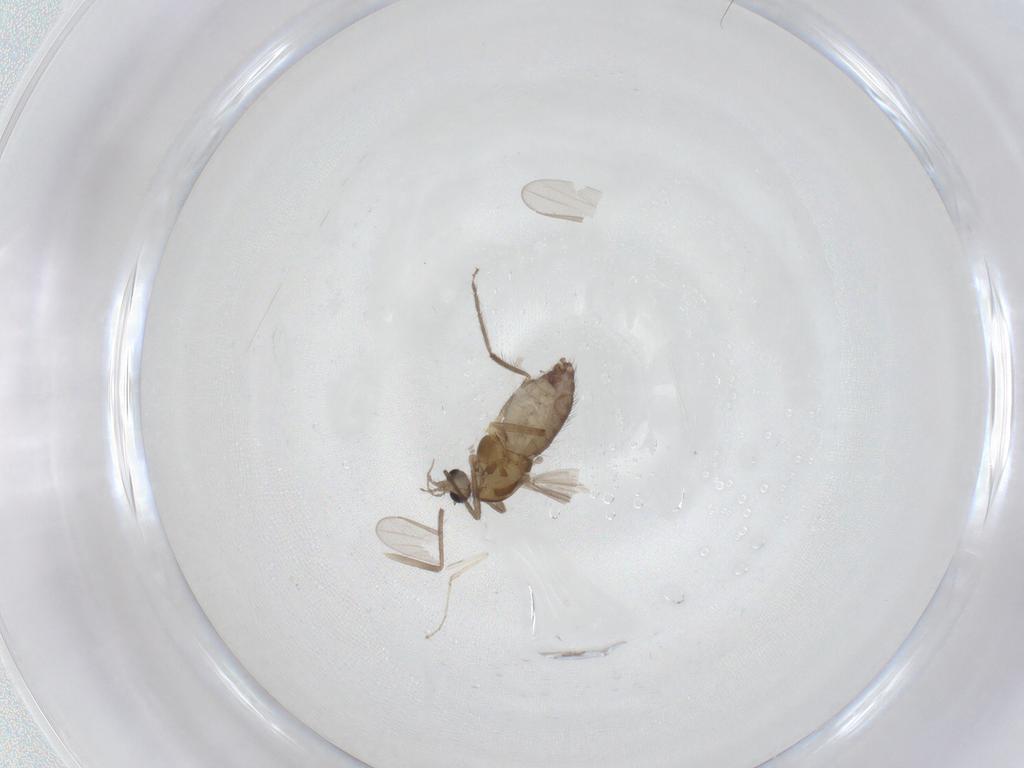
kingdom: Animalia
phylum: Arthropoda
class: Insecta
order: Diptera
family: Chironomidae
